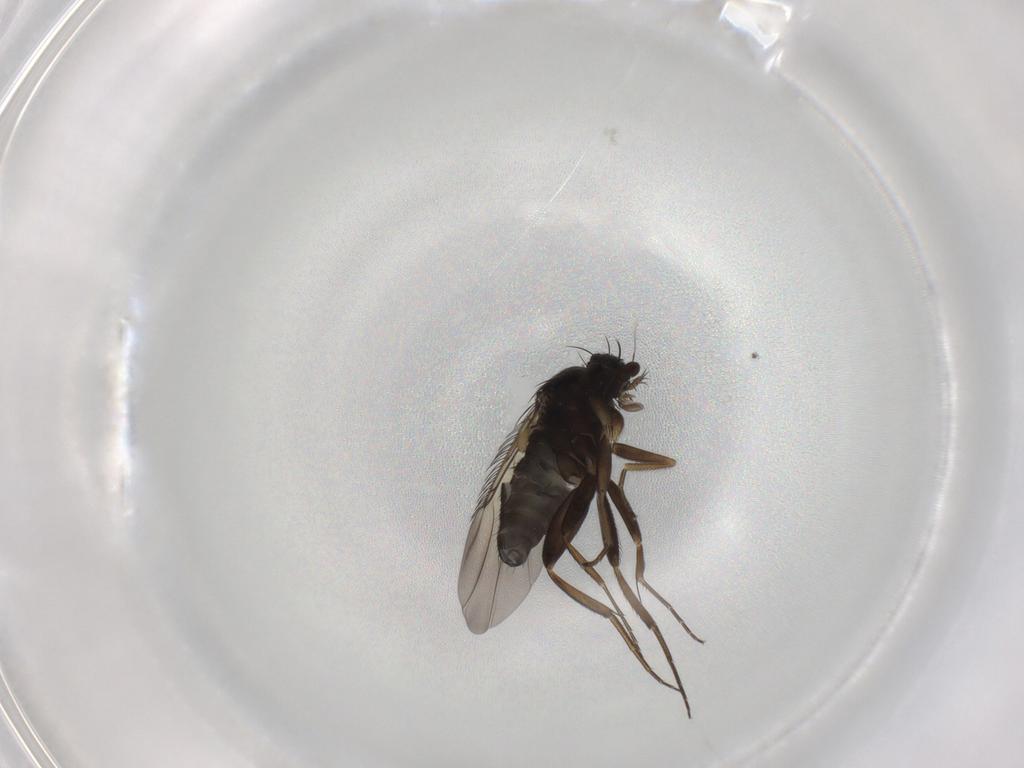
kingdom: Animalia
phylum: Arthropoda
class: Insecta
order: Diptera
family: Phoridae
